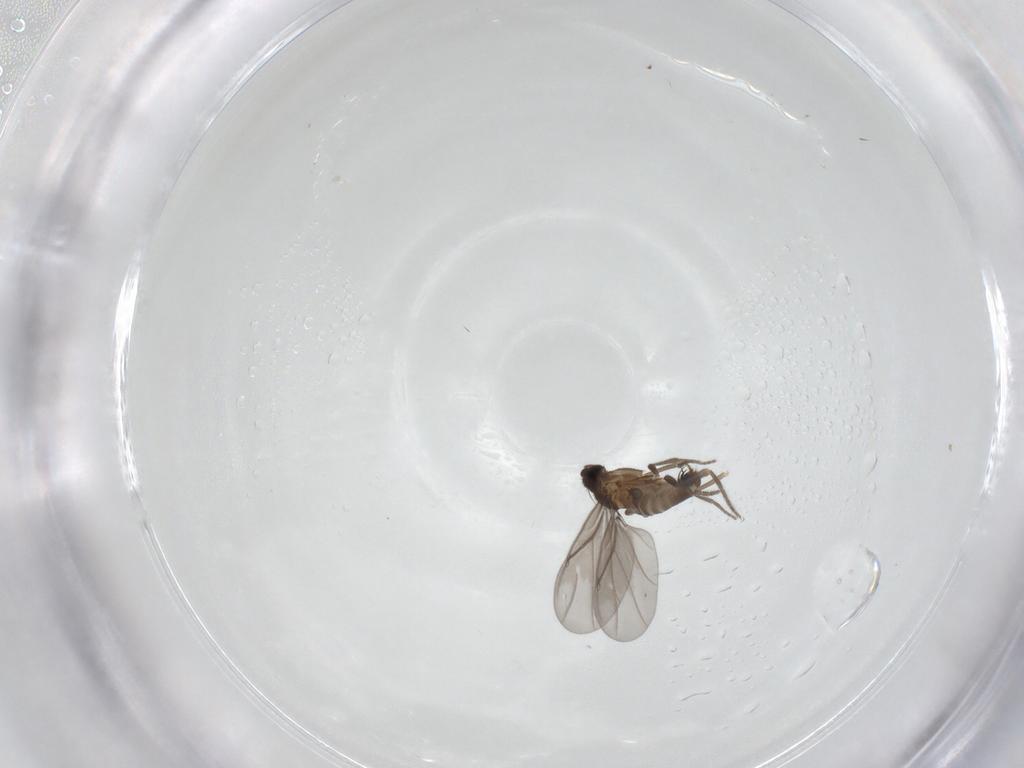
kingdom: Animalia
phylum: Arthropoda
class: Insecta
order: Diptera
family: Phoridae
